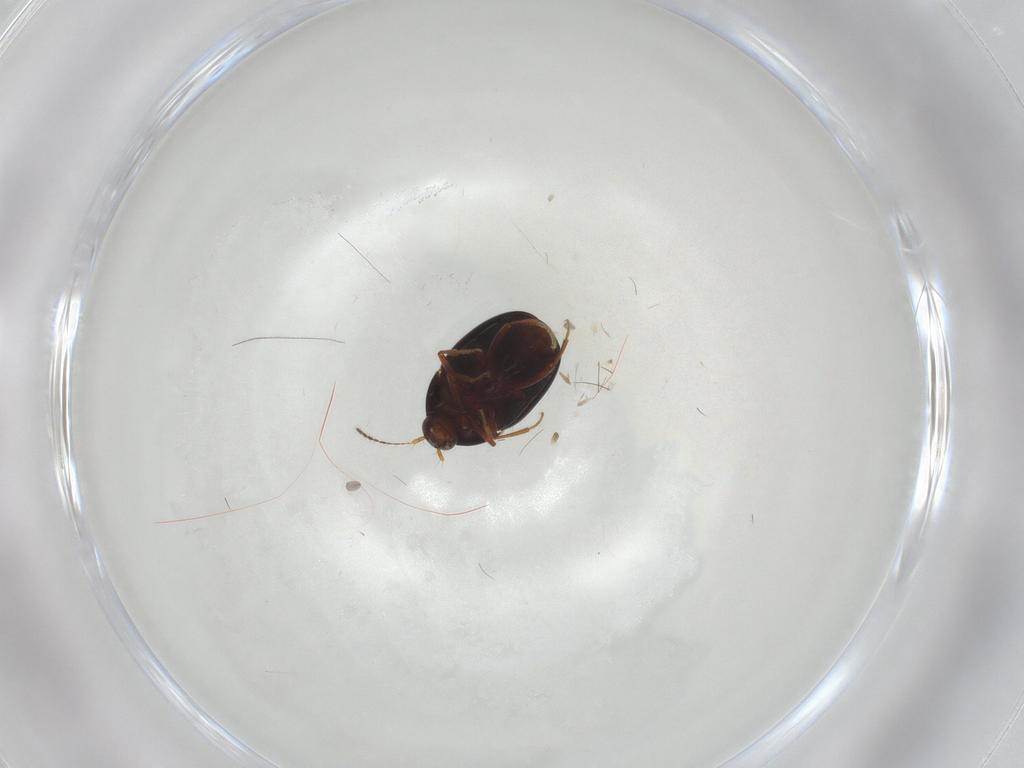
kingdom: Animalia
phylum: Arthropoda
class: Insecta
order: Coleoptera
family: Staphylinidae
